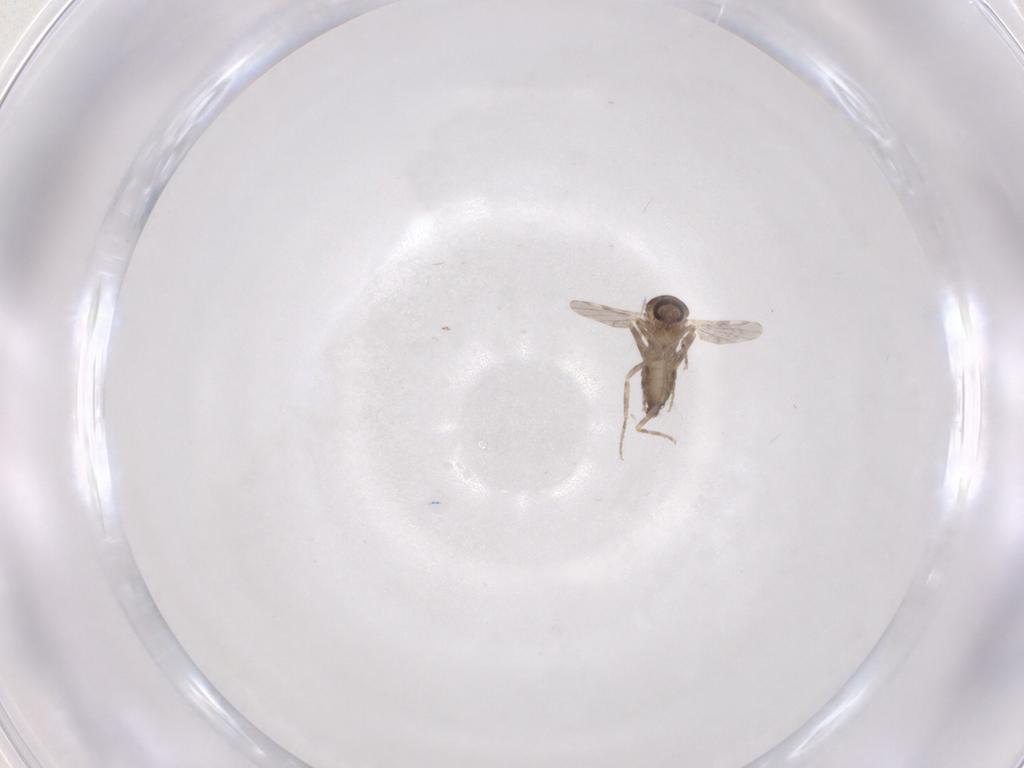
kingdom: Animalia
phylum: Arthropoda
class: Insecta
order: Diptera
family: Ceratopogonidae
